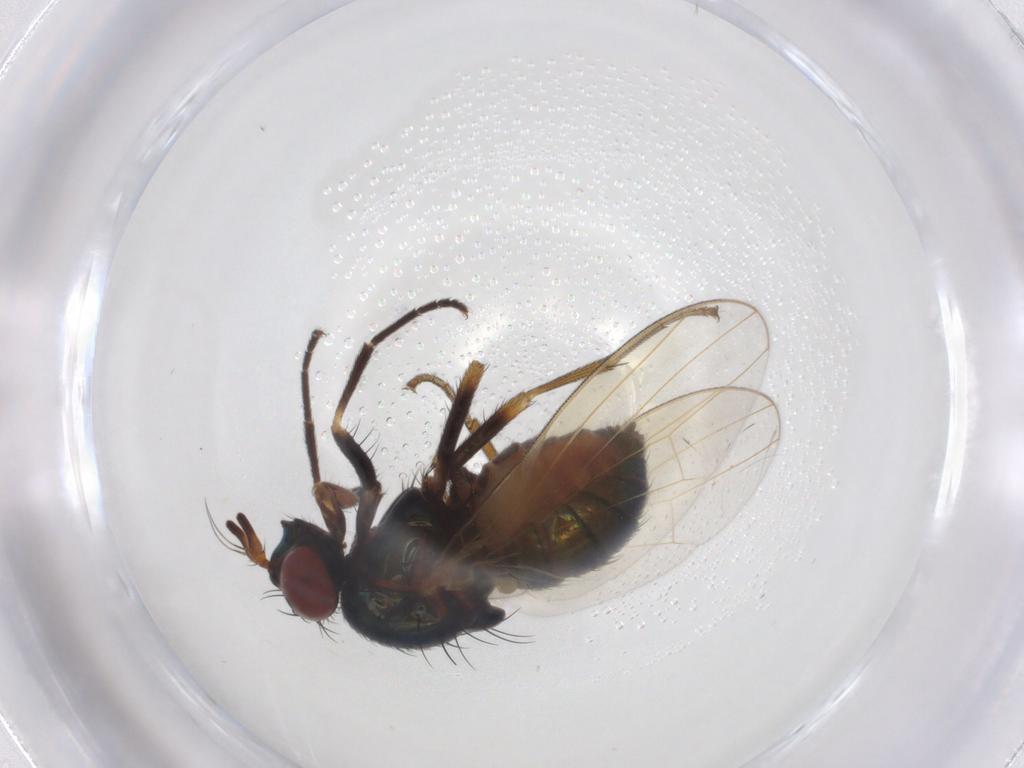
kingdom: Animalia
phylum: Arthropoda
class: Insecta
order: Diptera
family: Lauxaniidae
